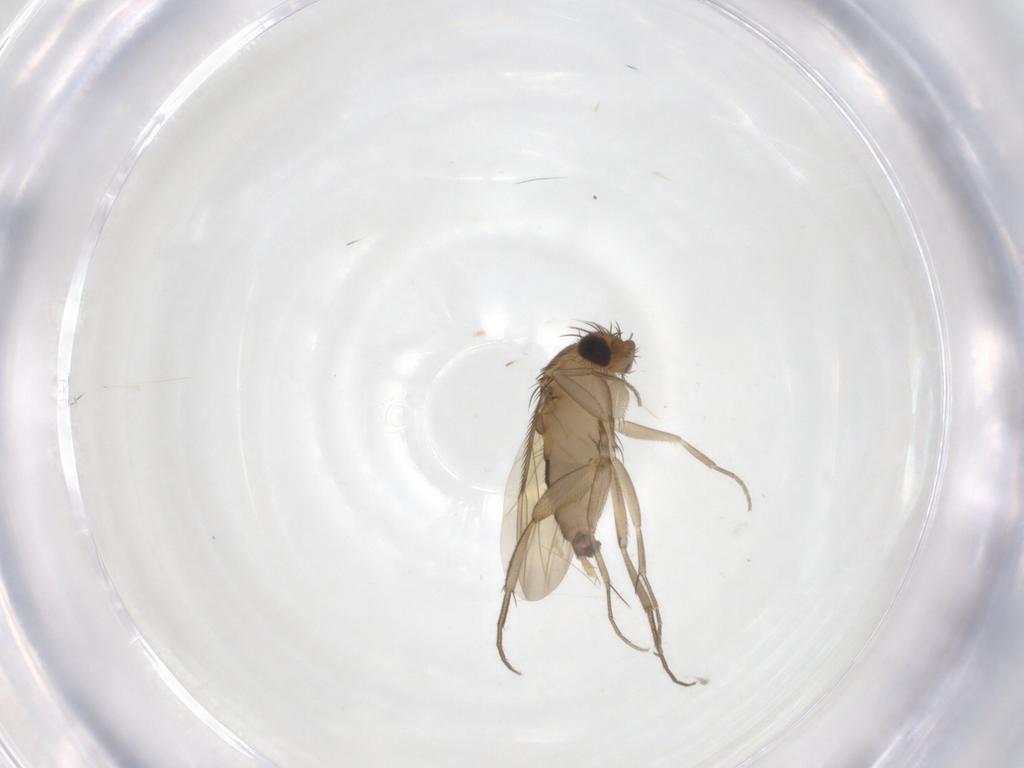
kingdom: Animalia
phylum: Arthropoda
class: Insecta
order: Diptera
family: Phoridae
